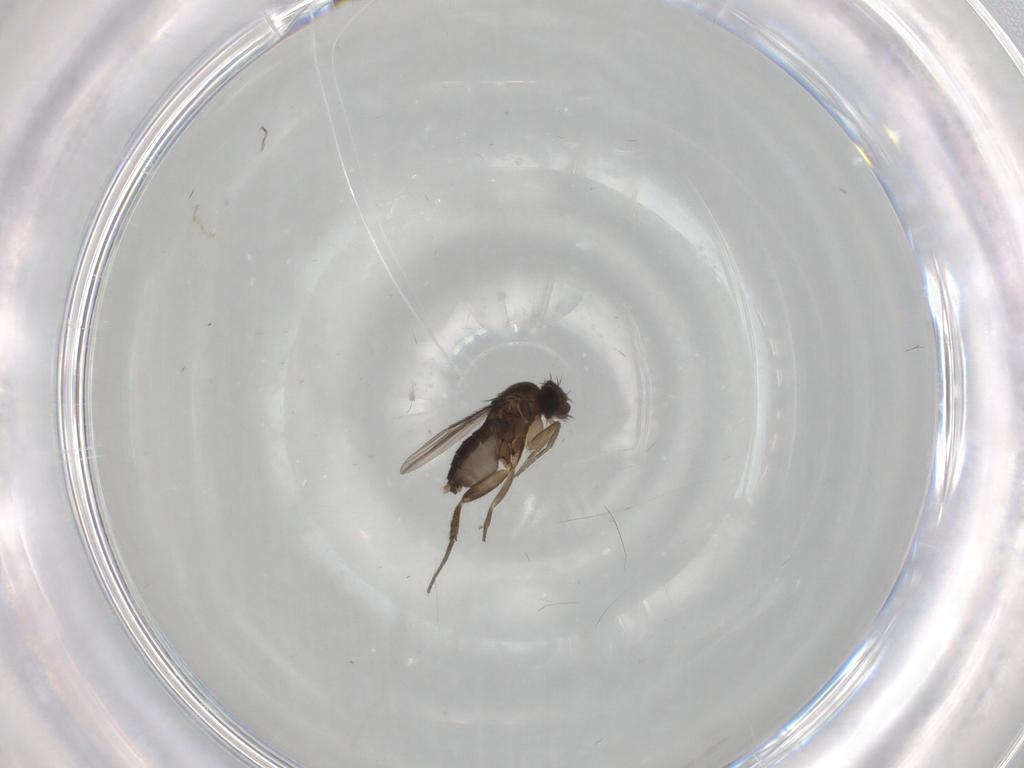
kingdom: Animalia
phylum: Arthropoda
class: Insecta
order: Diptera
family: Phoridae
